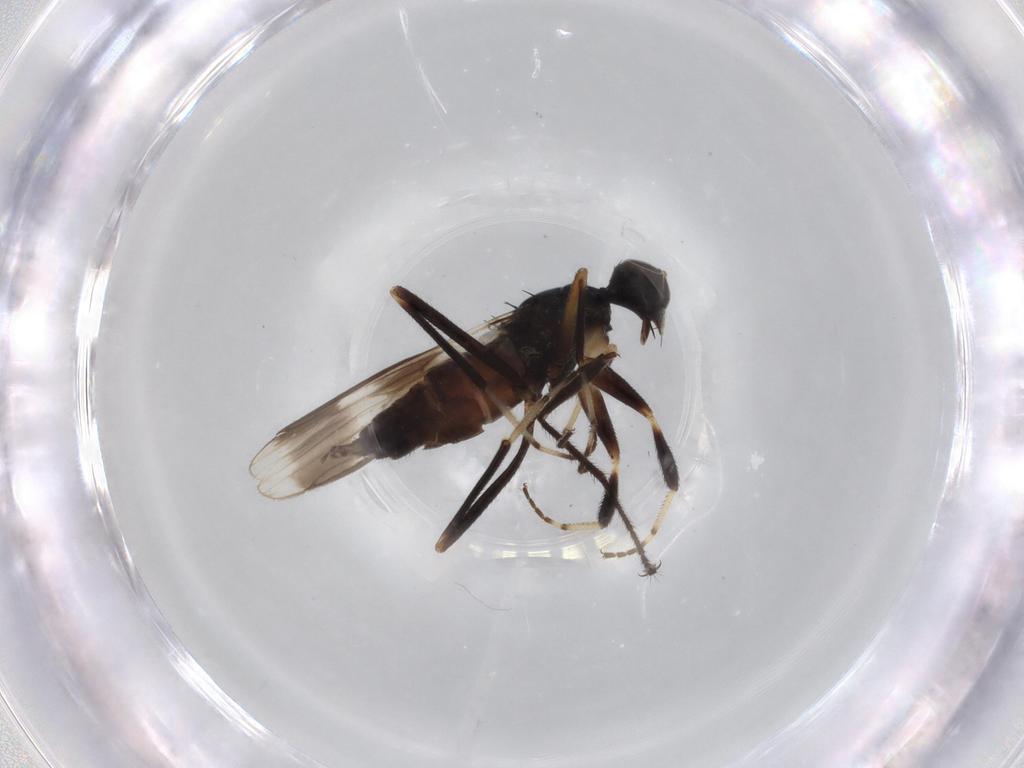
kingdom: Animalia
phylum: Arthropoda
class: Insecta
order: Diptera
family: Hybotidae
